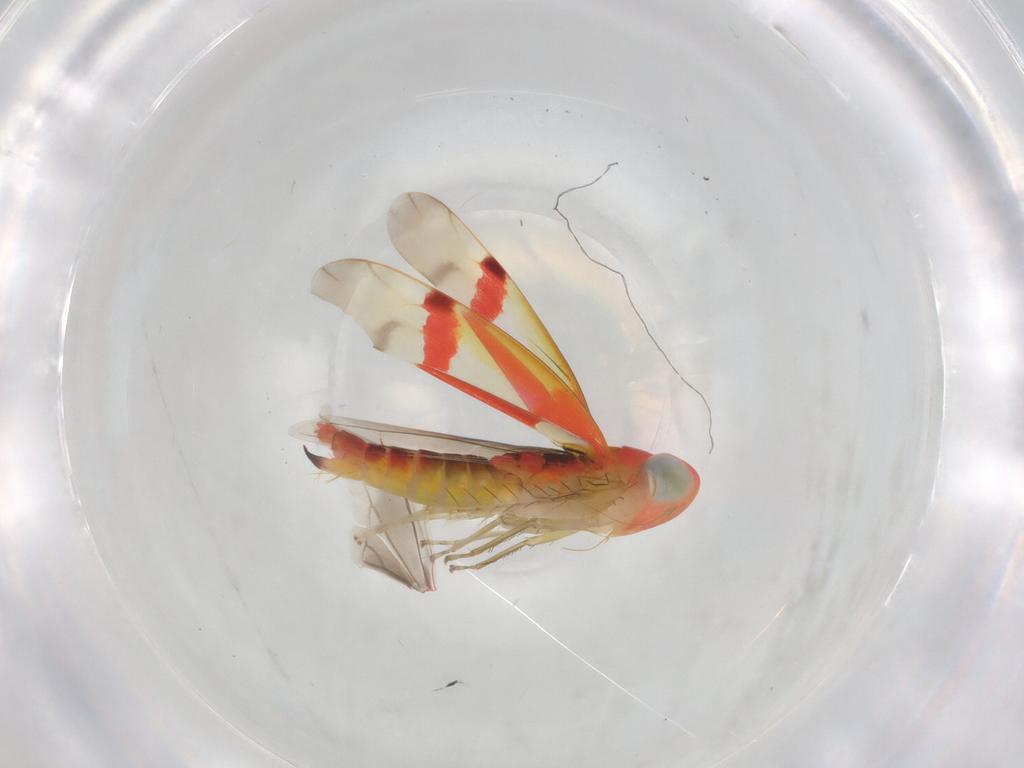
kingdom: Animalia
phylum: Arthropoda
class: Insecta
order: Hemiptera
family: Cicadellidae
